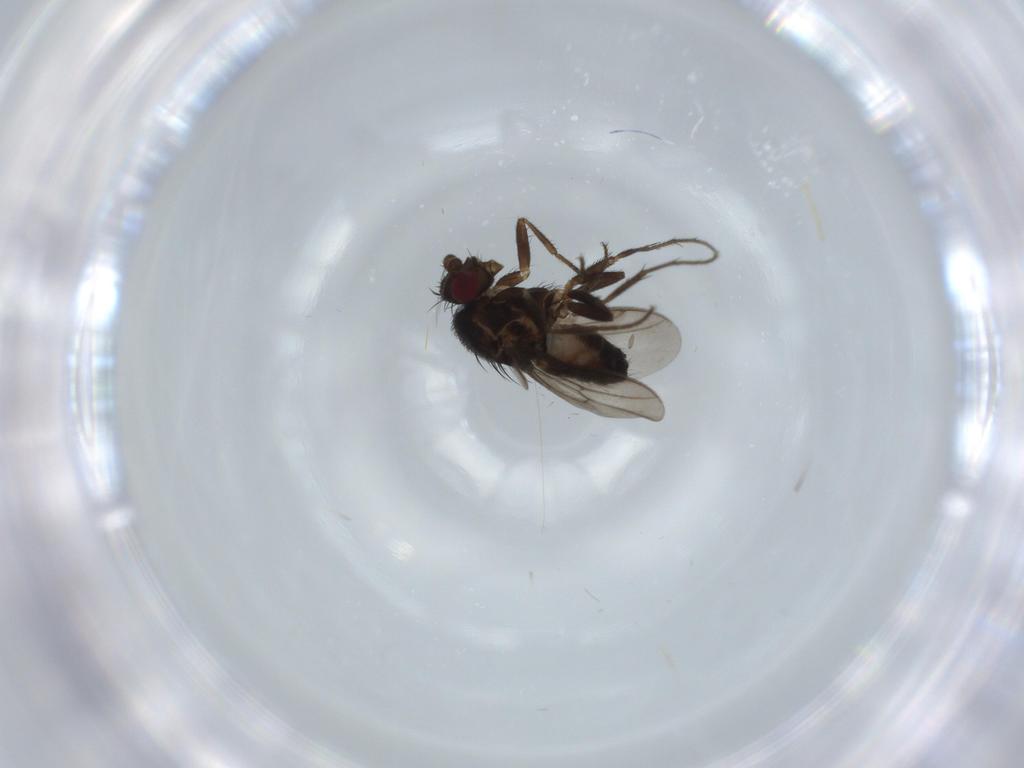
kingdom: Animalia
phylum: Arthropoda
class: Insecta
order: Diptera
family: Sphaeroceridae
